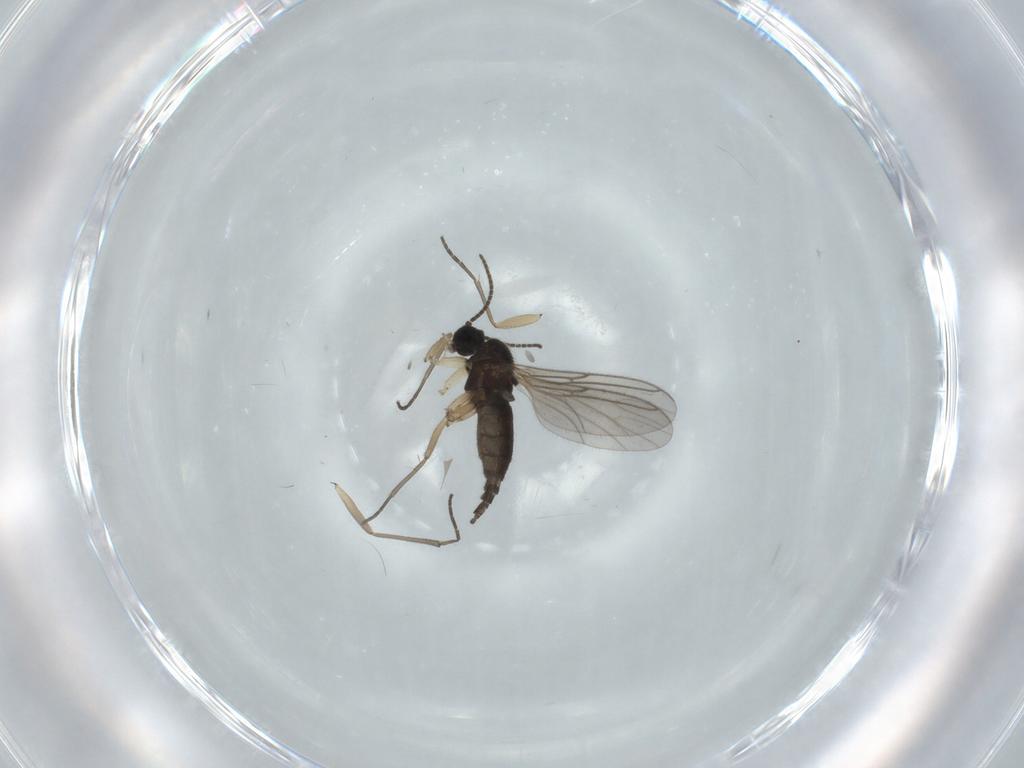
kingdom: Animalia
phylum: Arthropoda
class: Insecta
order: Diptera
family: Sciaridae
